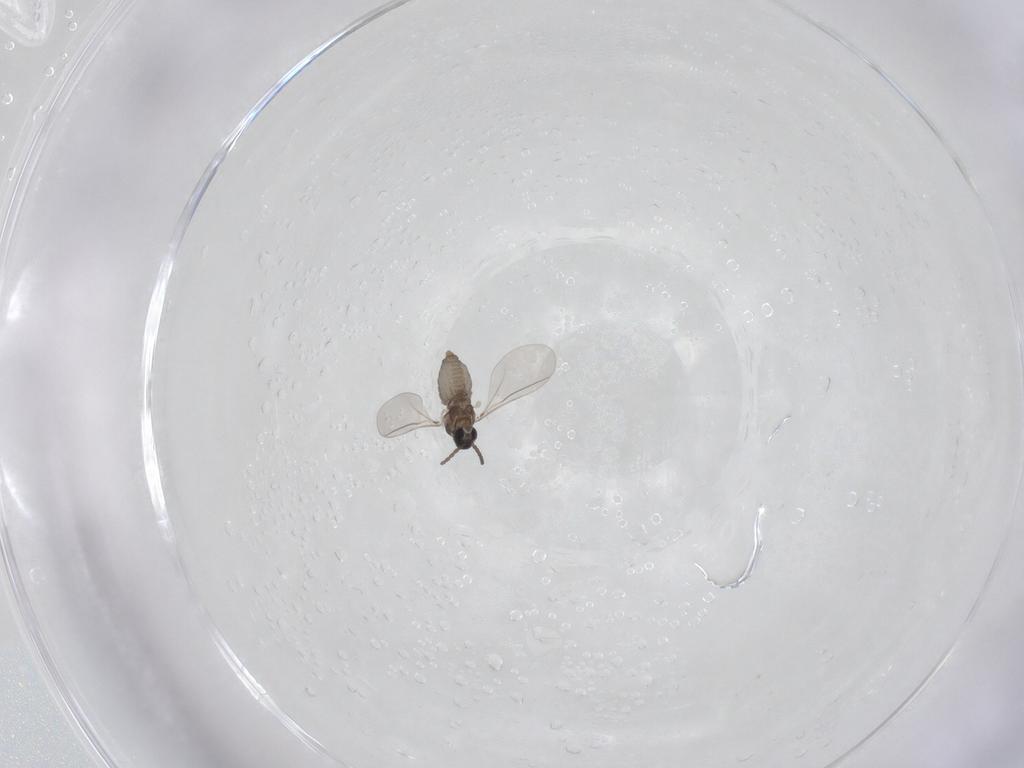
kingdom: Animalia
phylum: Arthropoda
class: Insecta
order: Diptera
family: Cecidomyiidae
